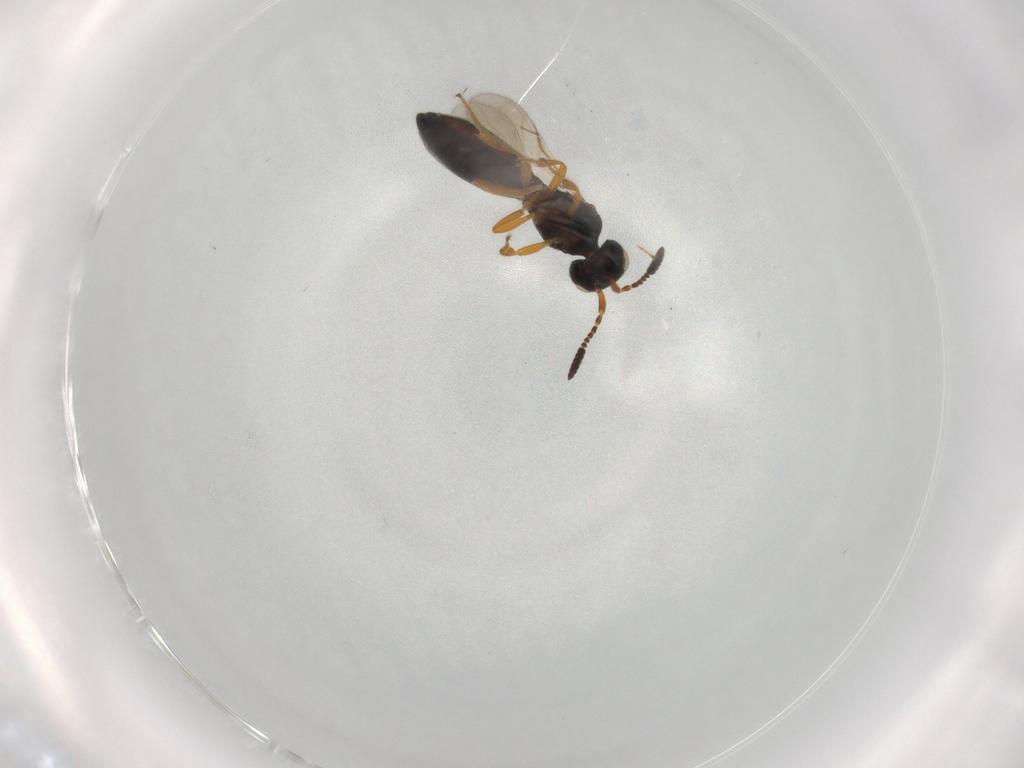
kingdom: Animalia
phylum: Arthropoda
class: Insecta
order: Hymenoptera
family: Scelionidae
